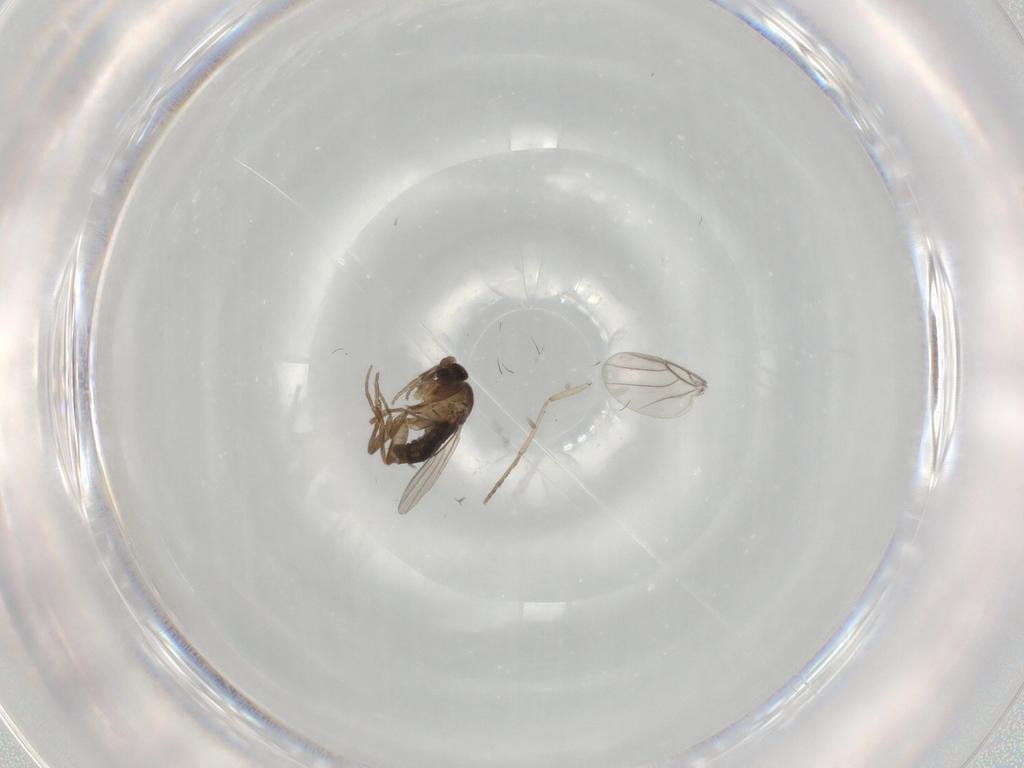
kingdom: Animalia
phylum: Arthropoda
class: Insecta
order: Diptera
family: Phoridae
